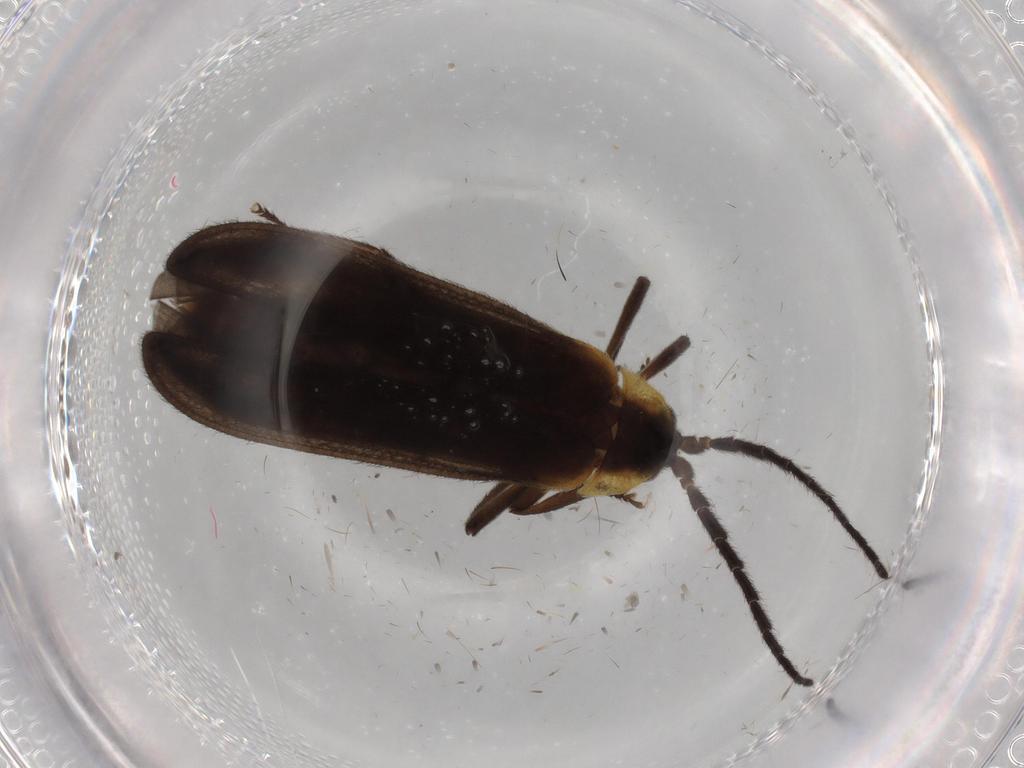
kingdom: Animalia
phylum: Arthropoda
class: Insecta
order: Coleoptera
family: Lycidae
